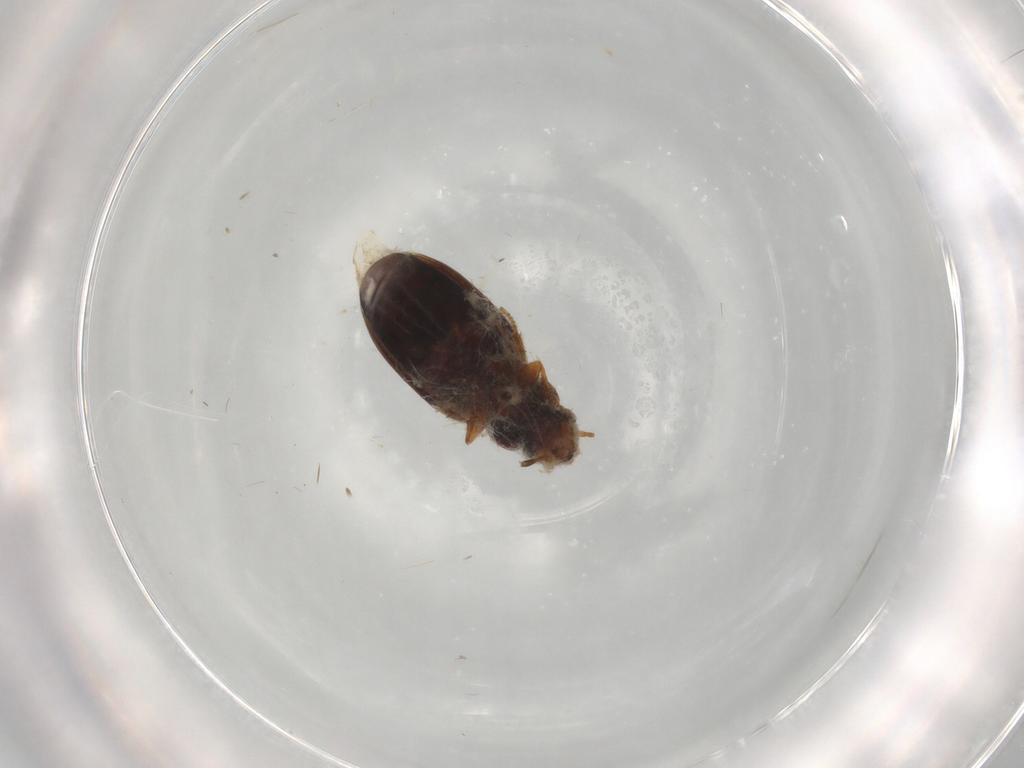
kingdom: Animalia
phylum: Arthropoda
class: Insecta
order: Coleoptera
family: Carabidae
